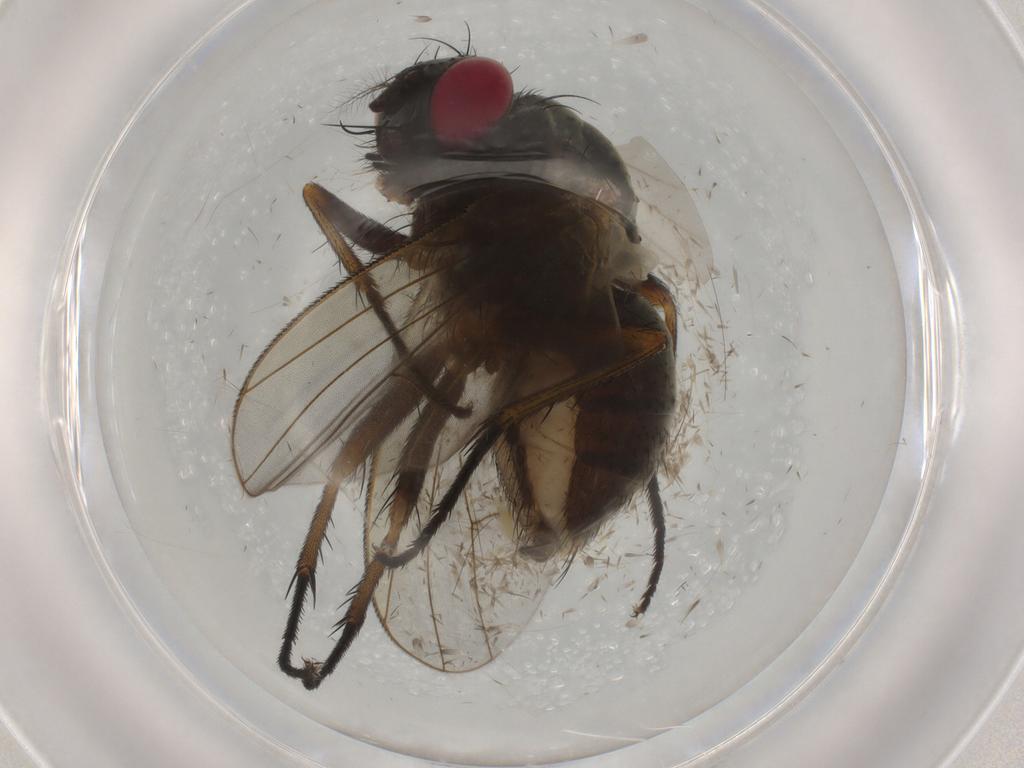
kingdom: Animalia
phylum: Arthropoda
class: Insecta
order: Diptera
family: Muscidae
